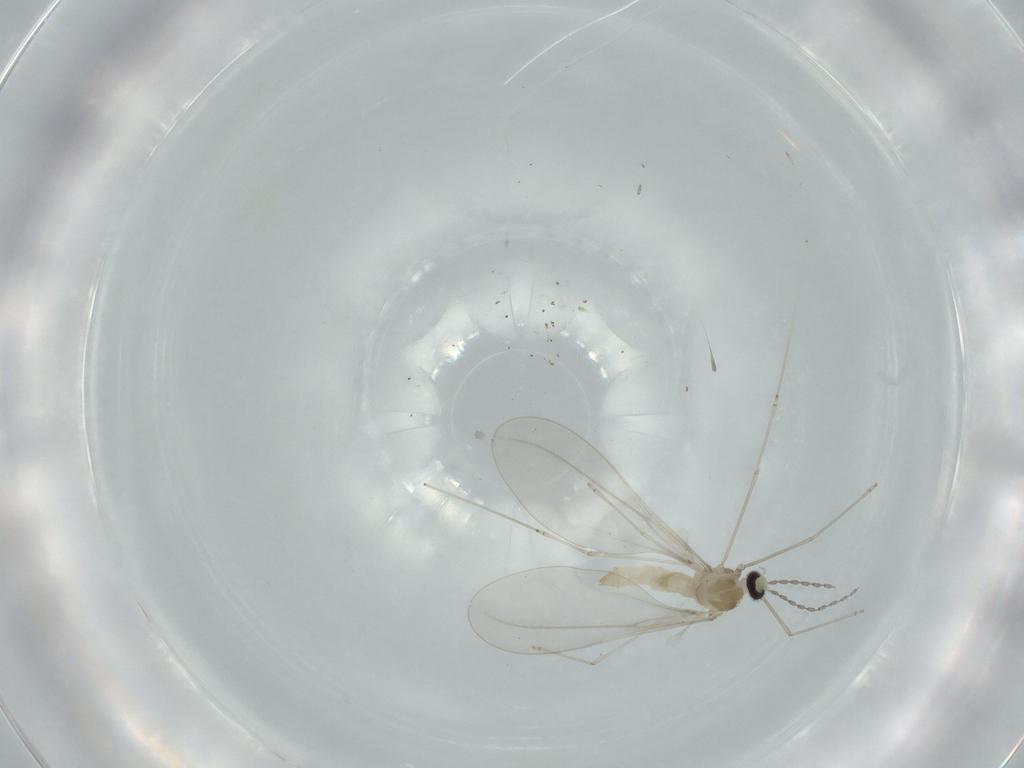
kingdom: Animalia
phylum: Arthropoda
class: Insecta
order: Diptera
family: Cecidomyiidae
